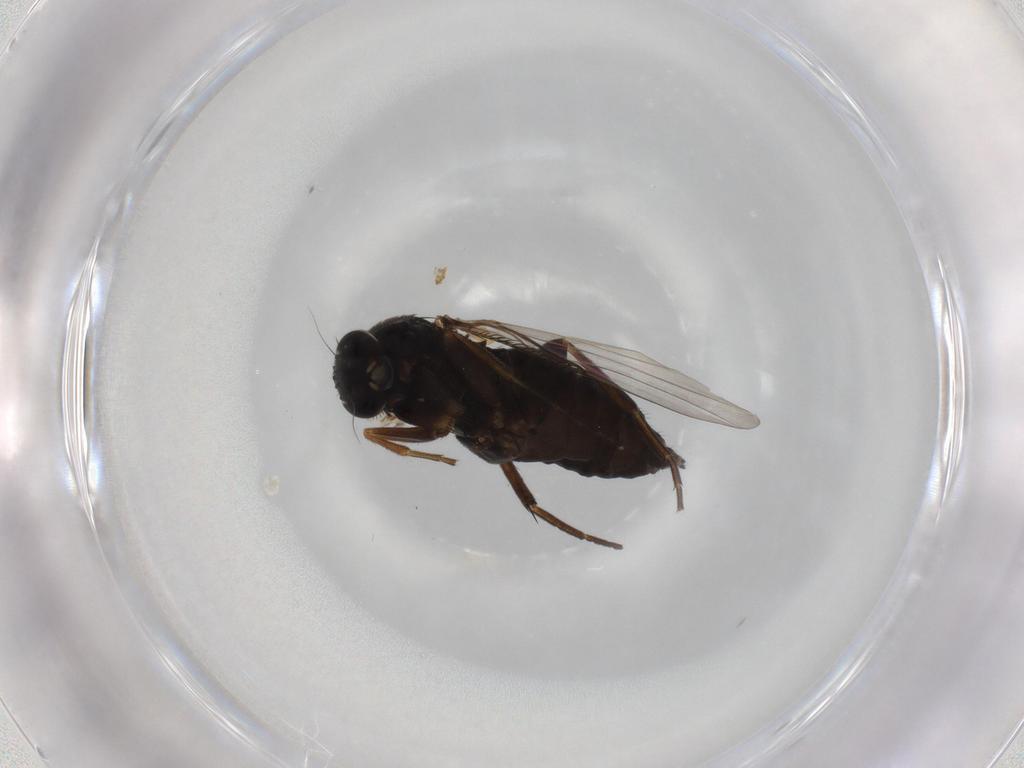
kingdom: Animalia
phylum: Arthropoda
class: Insecta
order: Diptera
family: Phoridae
